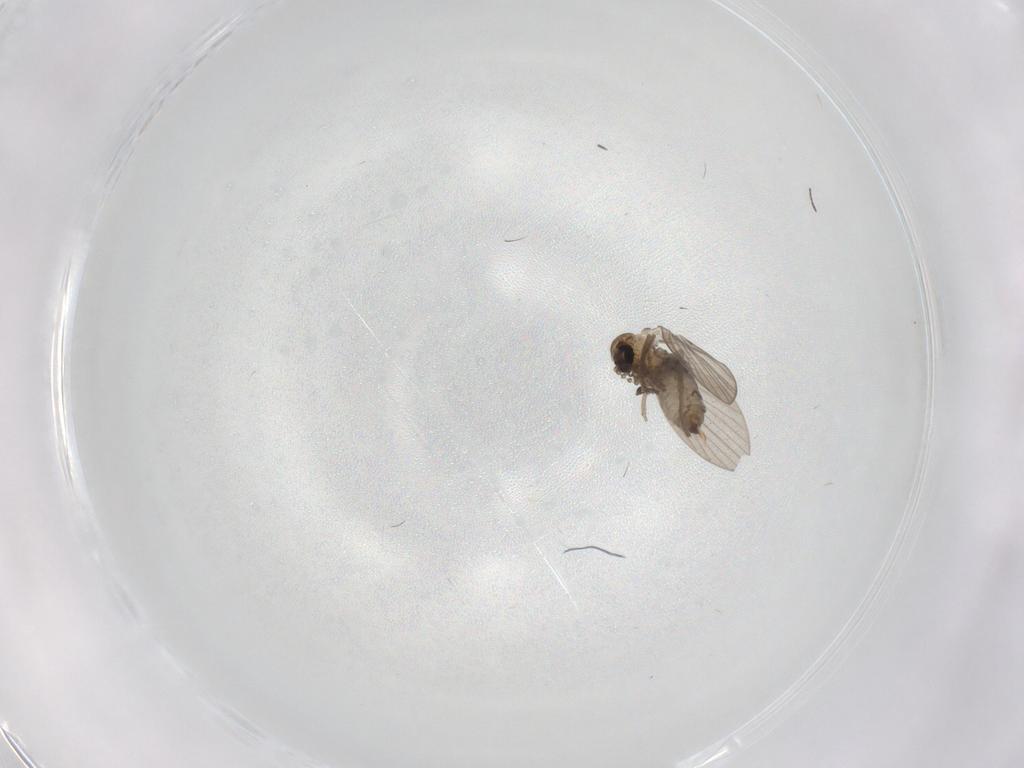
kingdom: Animalia
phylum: Arthropoda
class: Insecta
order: Diptera
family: Psychodidae
